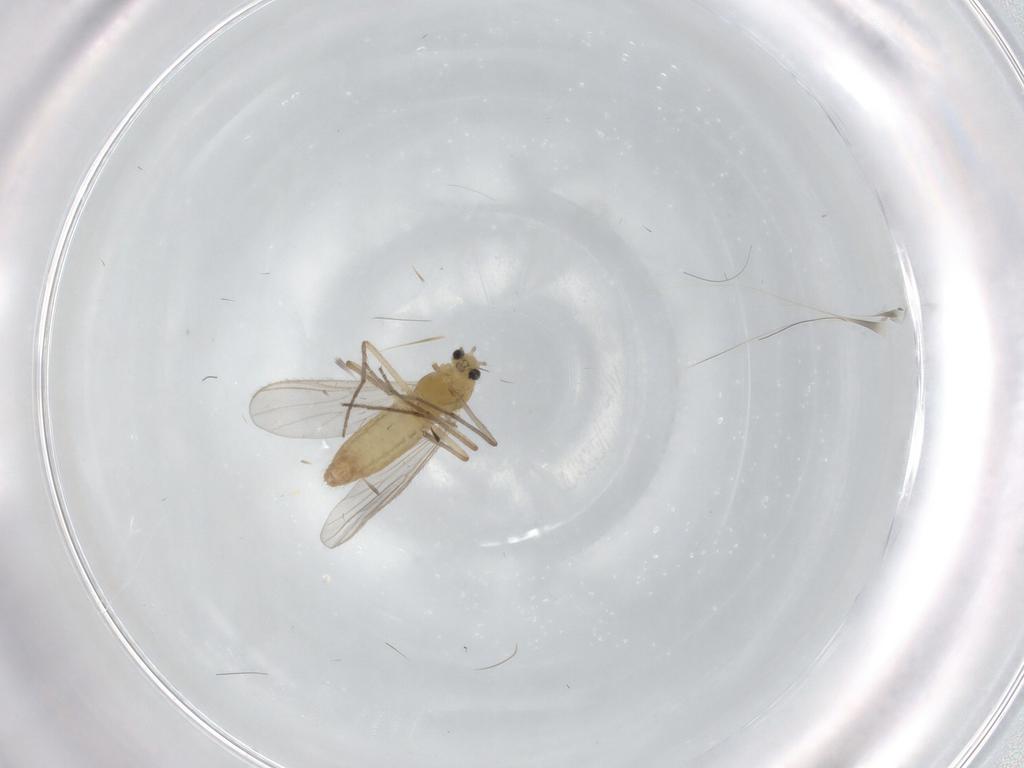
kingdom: Animalia
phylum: Arthropoda
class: Insecta
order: Diptera
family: Chironomidae
